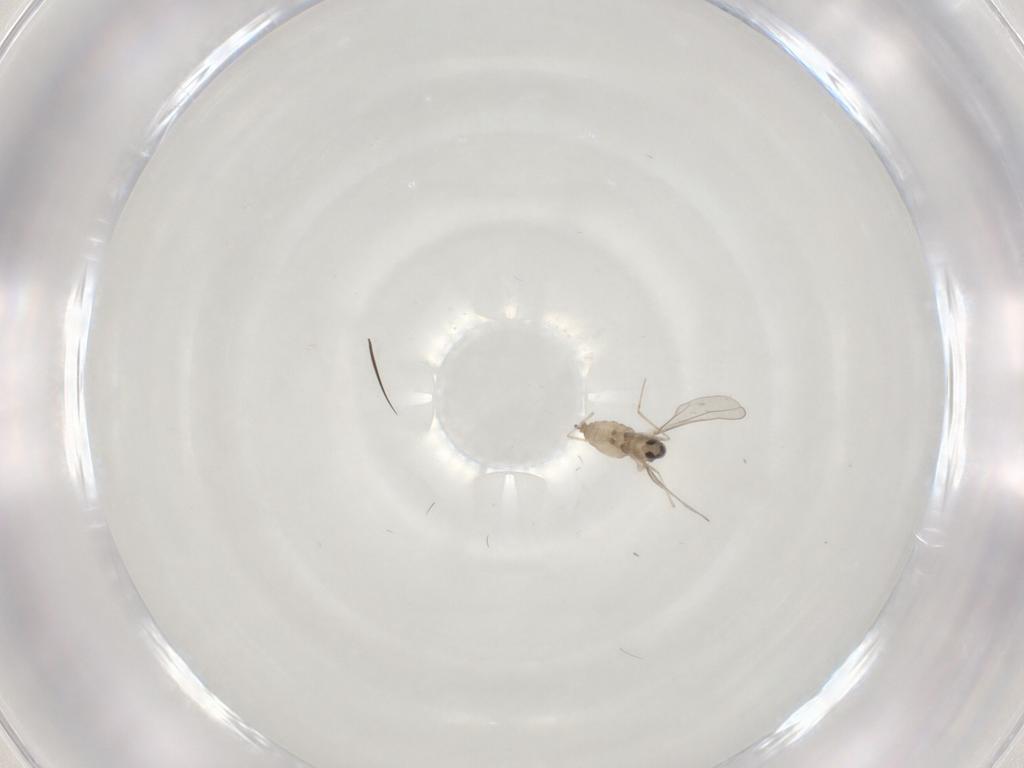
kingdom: Animalia
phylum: Arthropoda
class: Insecta
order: Diptera
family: Cecidomyiidae
